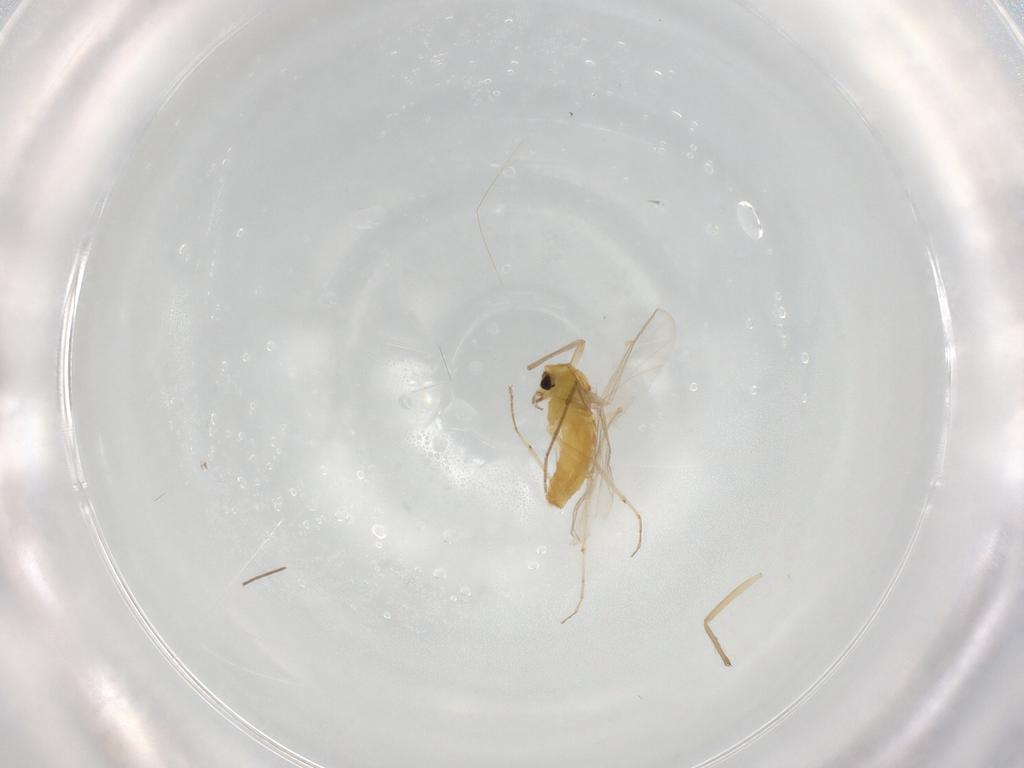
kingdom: Animalia
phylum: Arthropoda
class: Insecta
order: Diptera
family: Chironomidae
